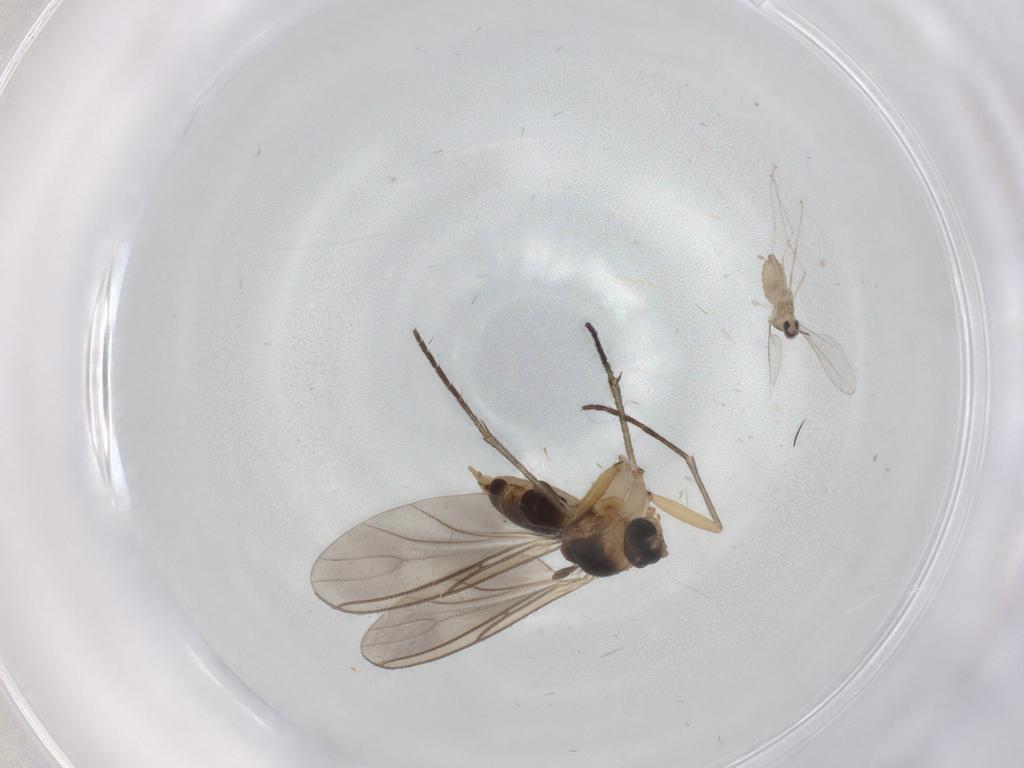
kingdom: Animalia
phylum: Arthropoda
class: Insecta
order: Diptera
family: Cecidomyiidae
